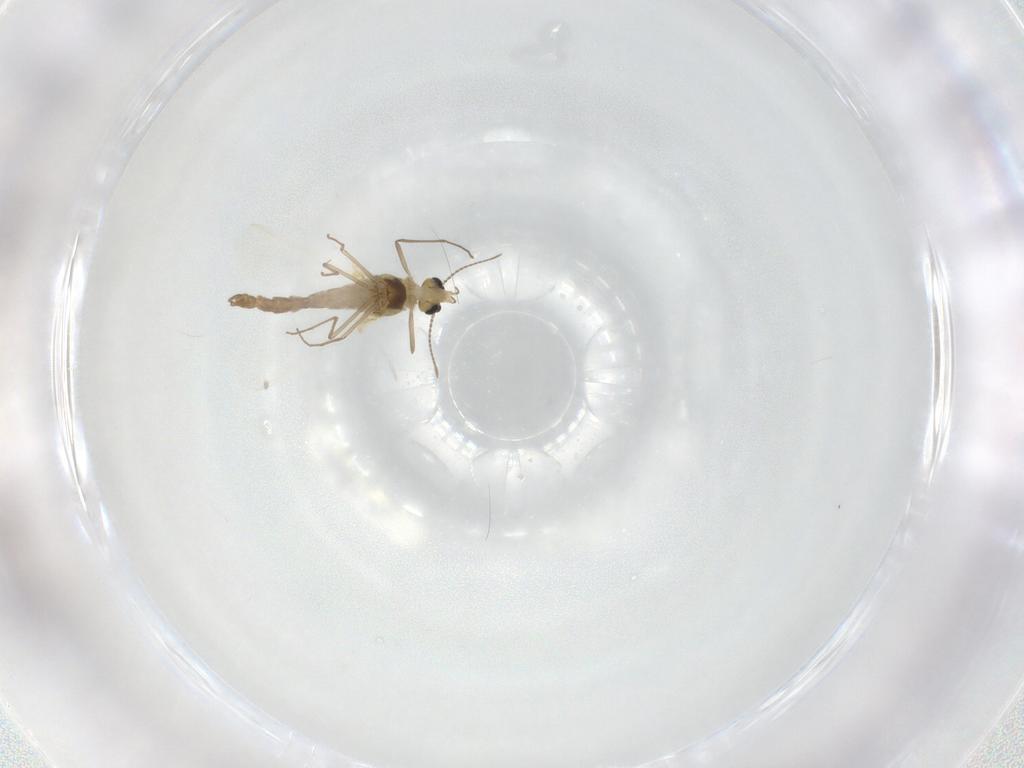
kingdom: Animalia
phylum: Arthropoda
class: Insecta
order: Diptera
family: Chironomidae
